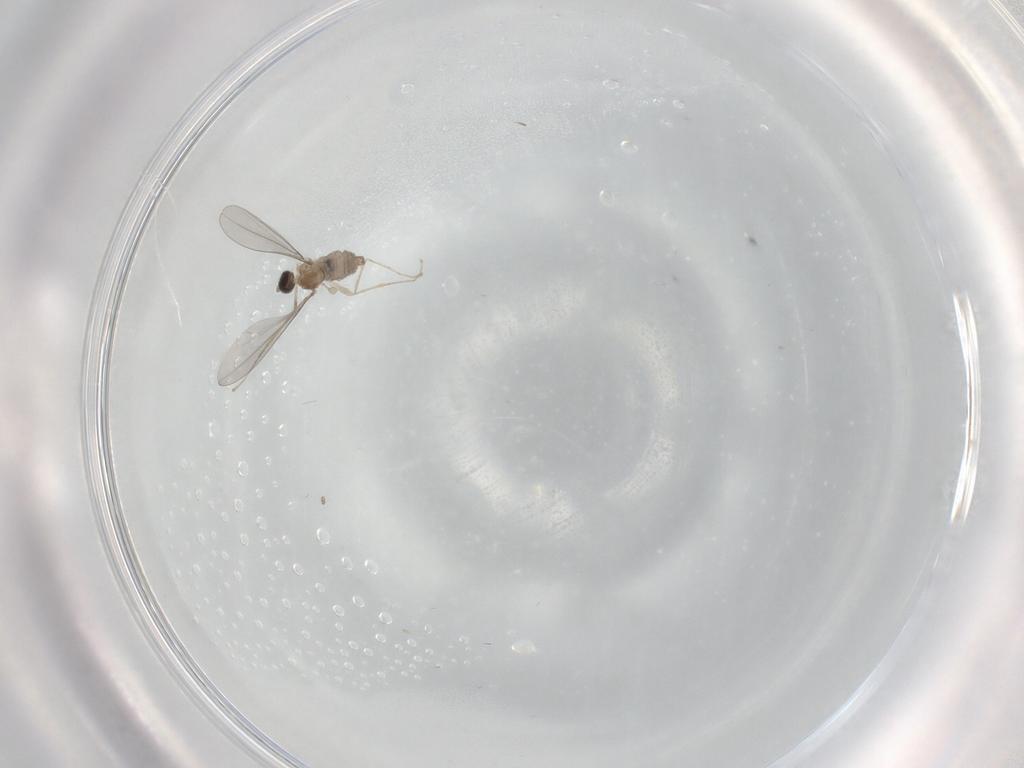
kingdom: Animalia
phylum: Arthropoda
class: Insecta
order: Diptera
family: Cecidomyiidae
